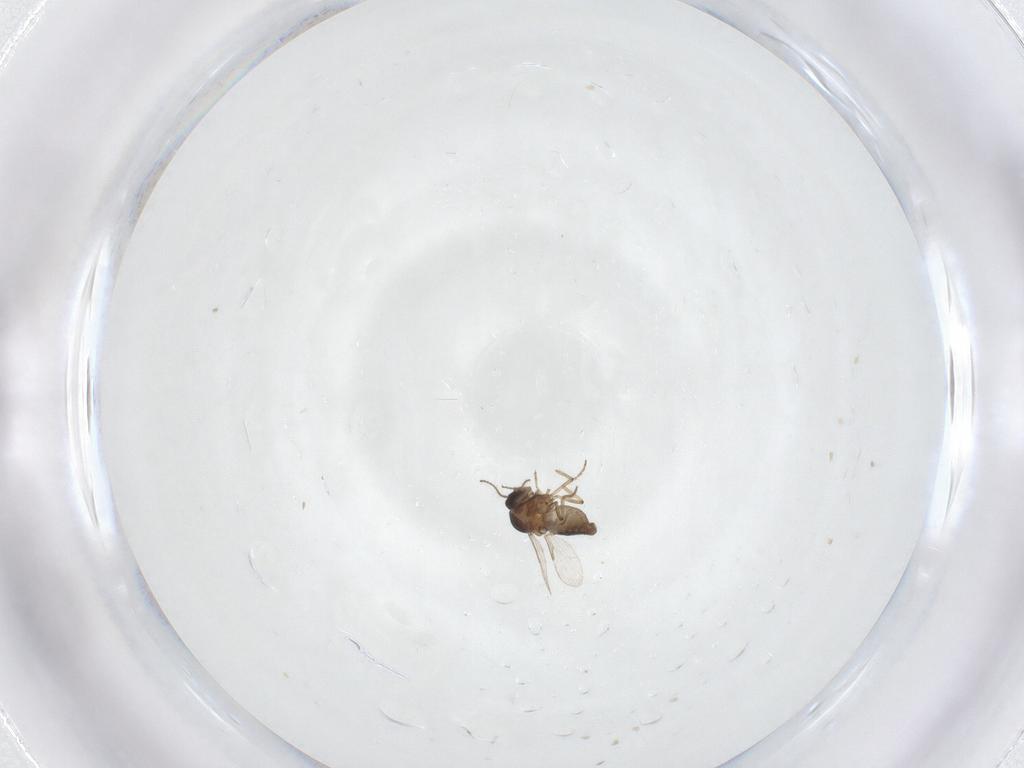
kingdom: Animalia
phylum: Arthropoda
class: Insecta
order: Diptera
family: Ceratopogonidae
